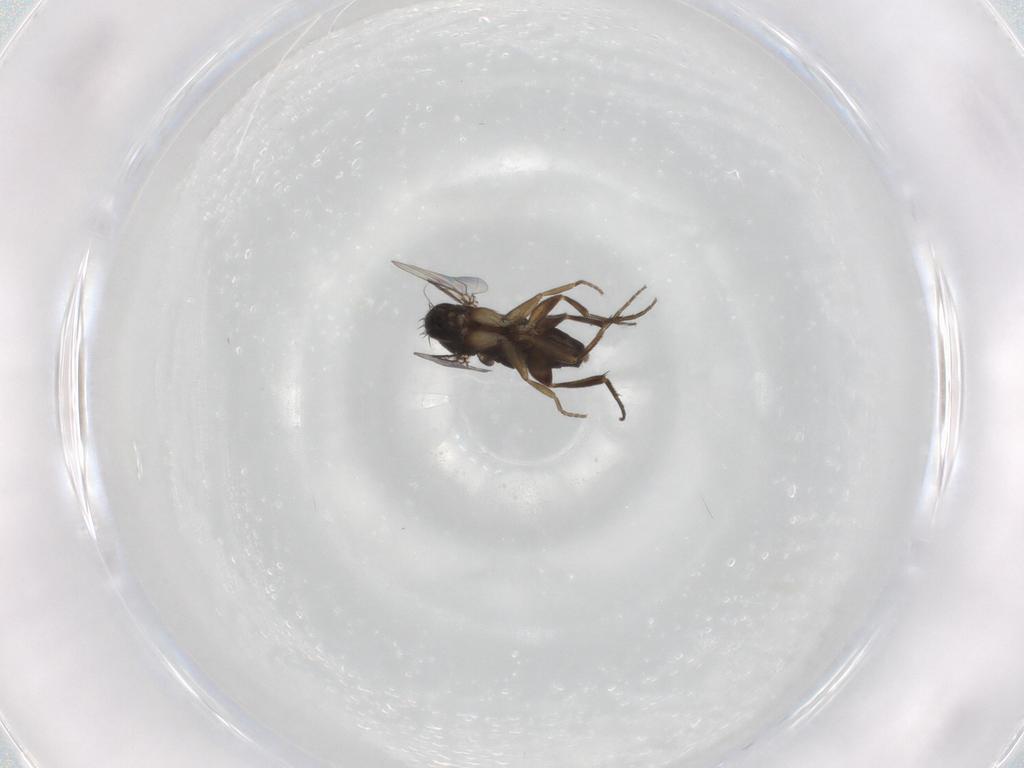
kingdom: Animalia
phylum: Arthropoda
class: Insecta
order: Diptera
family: Phoridae
